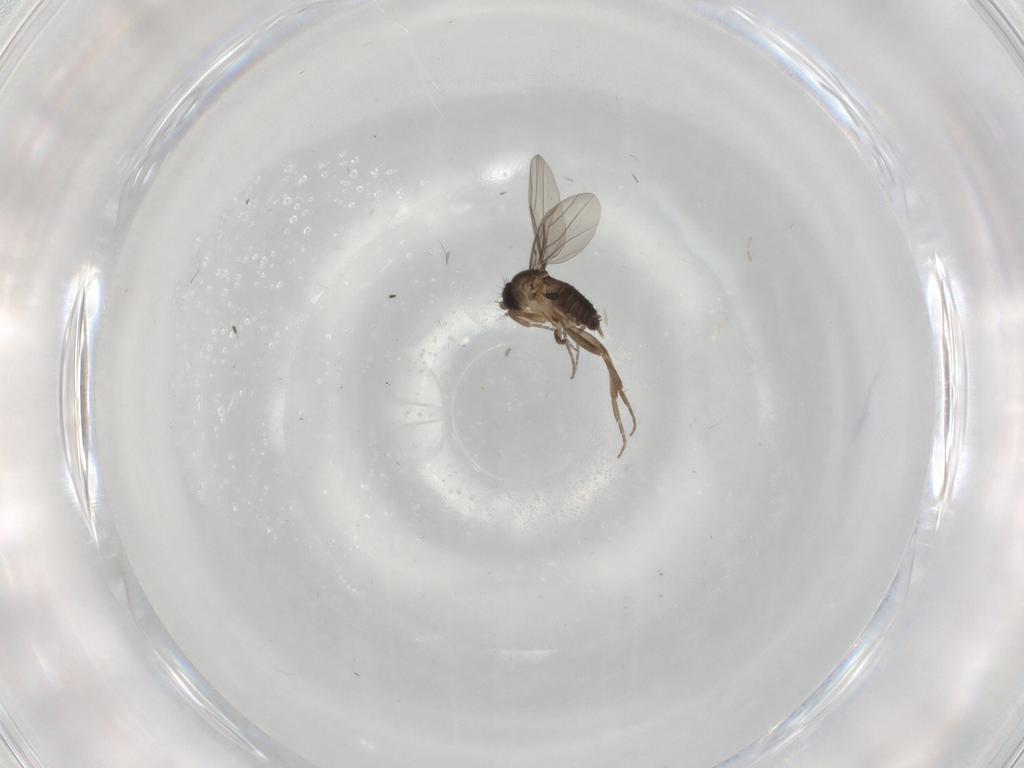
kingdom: Animalia
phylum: Arthropoda
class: Insecta
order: Diptera
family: Phoridae
